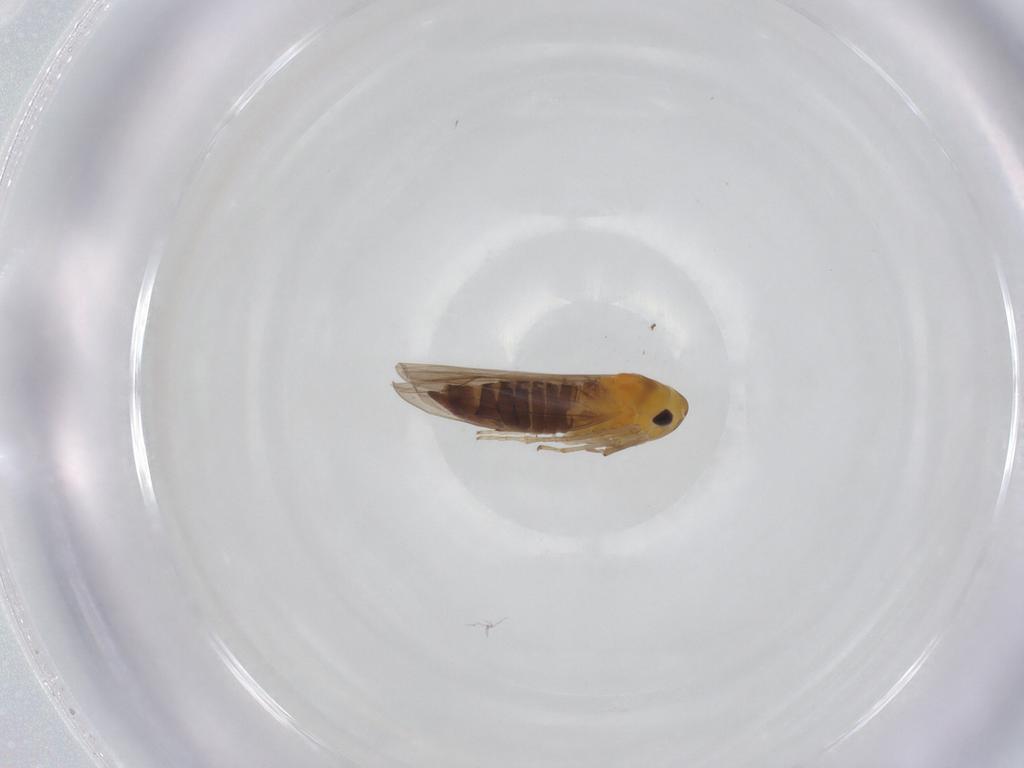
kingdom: Animalia
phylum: Arthropoda
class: Insecta
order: Hemiptera
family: Cicadellidae
